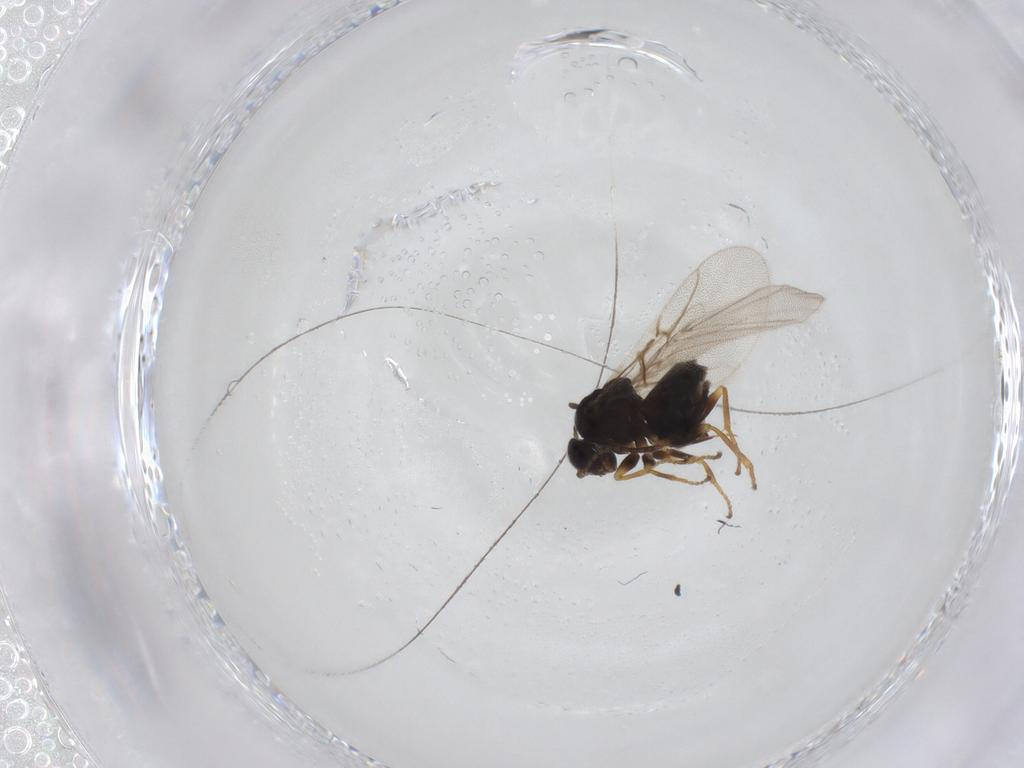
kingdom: Animalia
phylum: Arthropoda
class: Insecta
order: Hymenoptera
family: Cynipidae
